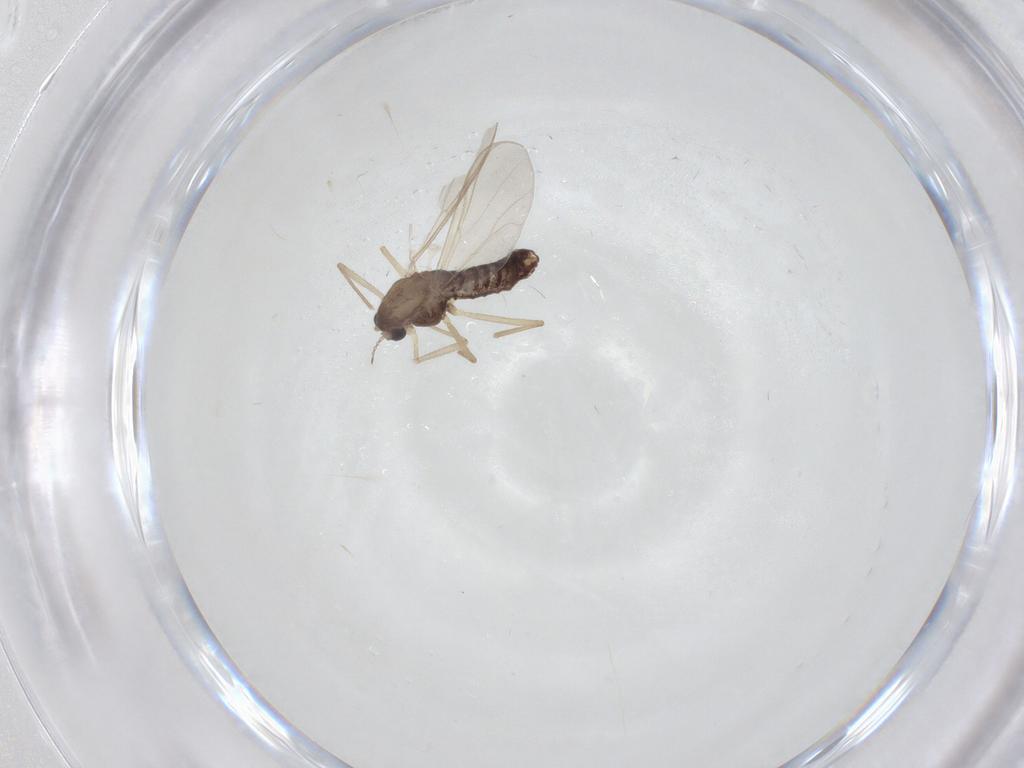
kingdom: Animalia
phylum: Arthropoda
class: Insecta
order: Diptera
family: Chironomidae
